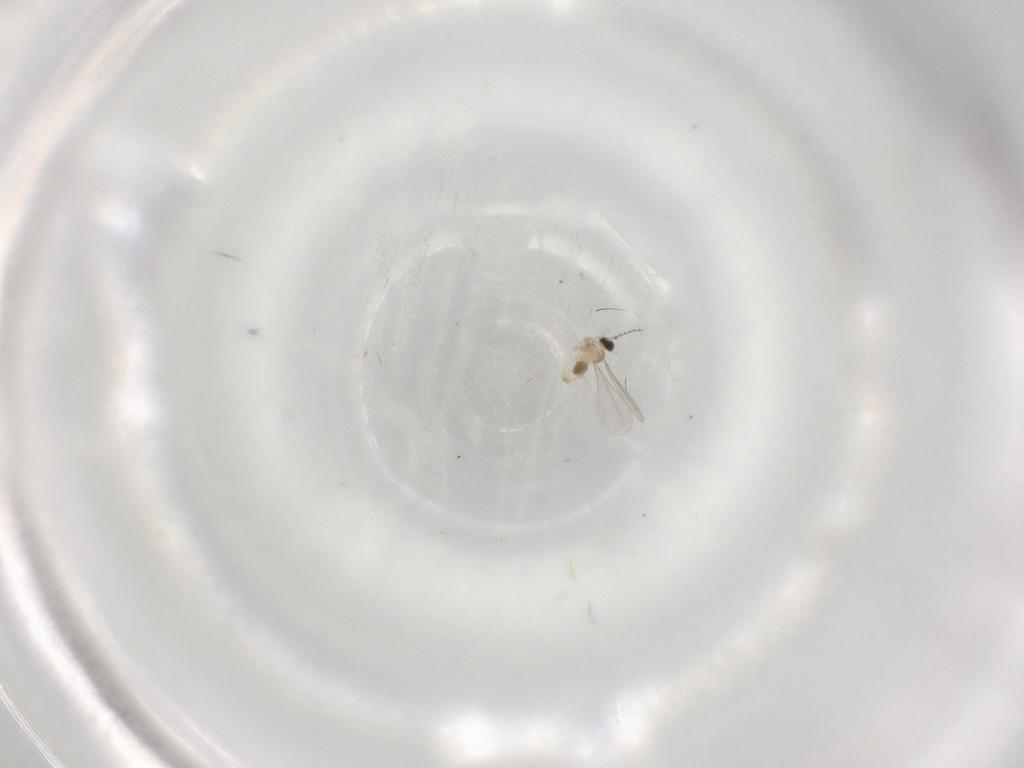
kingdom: Animalia
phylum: Arthropoda
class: Insecta
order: Diptera
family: Cecidomyiidae
